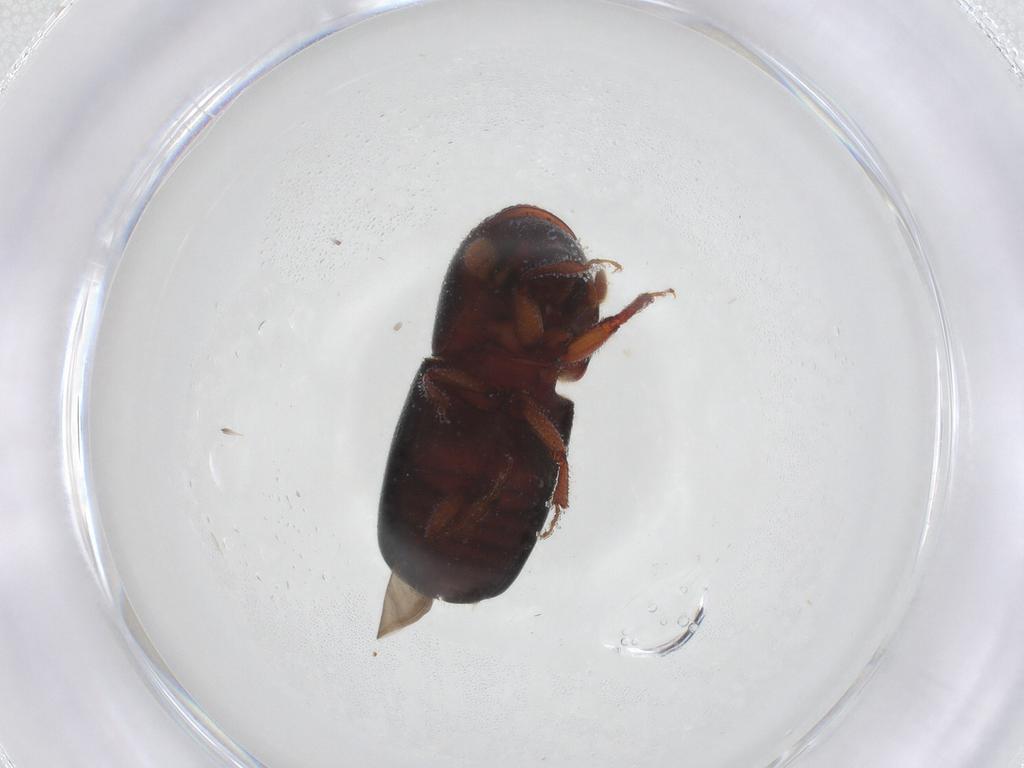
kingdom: Animalia
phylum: Arthropoda
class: Insecta
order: Coleoptera
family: Curculionidae
